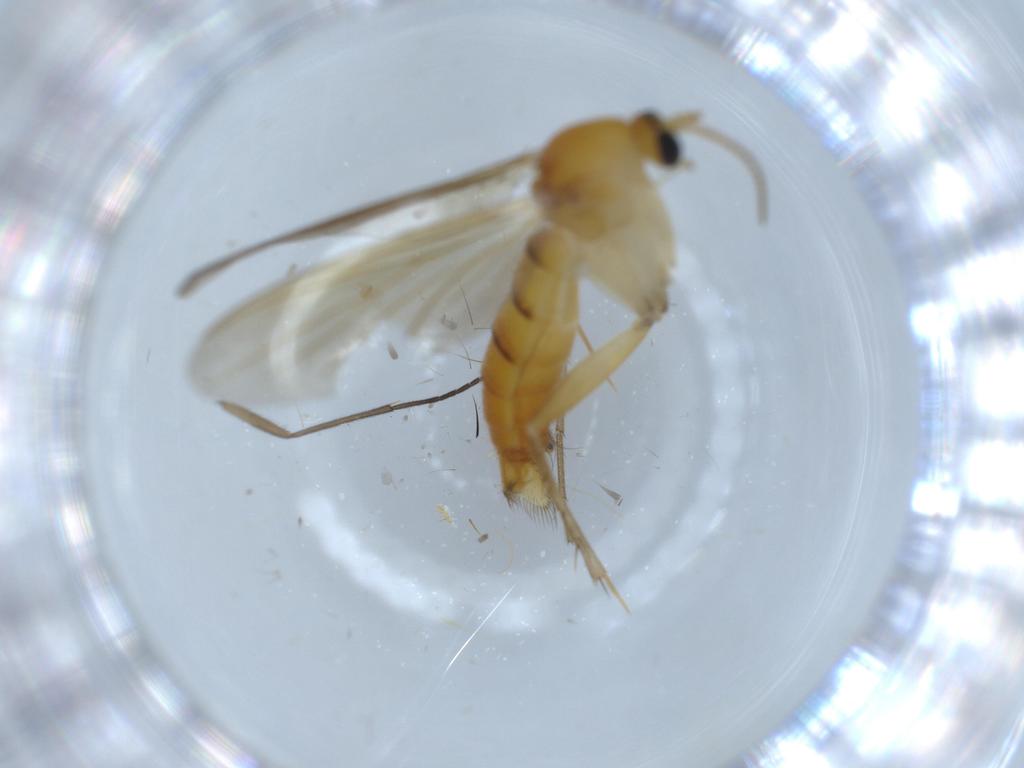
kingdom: Animalia
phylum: Arthropoda
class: Insecta
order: Diptera
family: Mycetophilidae
